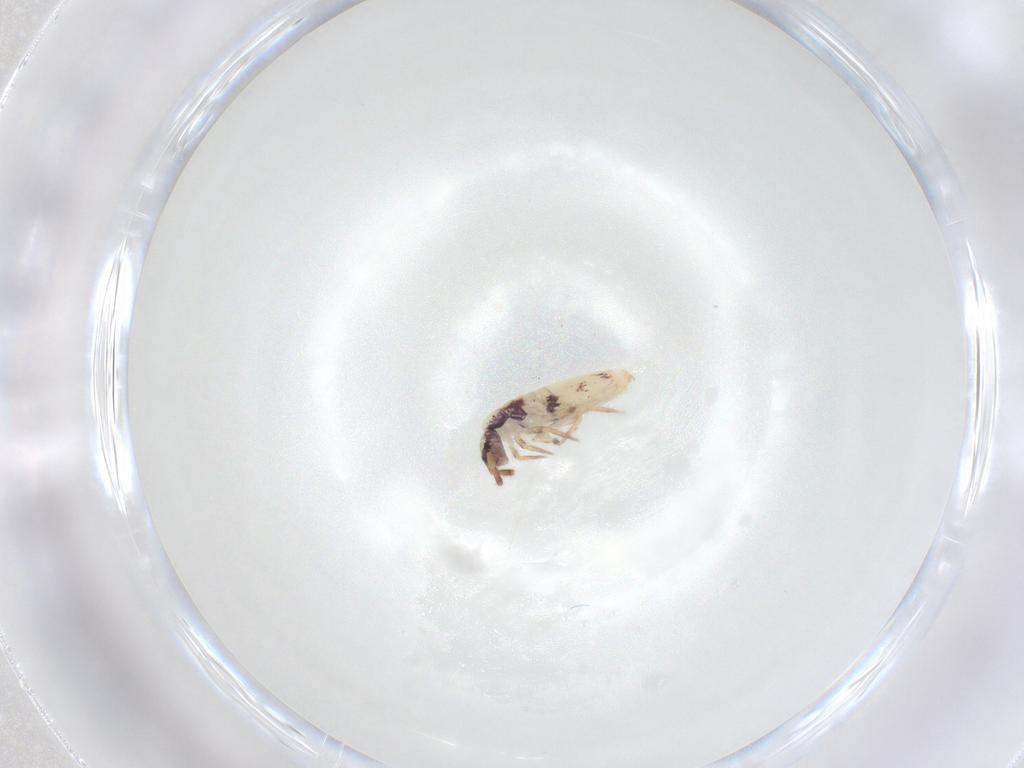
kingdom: Animalia
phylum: Arthropoda
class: Collembola
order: Entomobryomorpha
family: Entomobryidae
